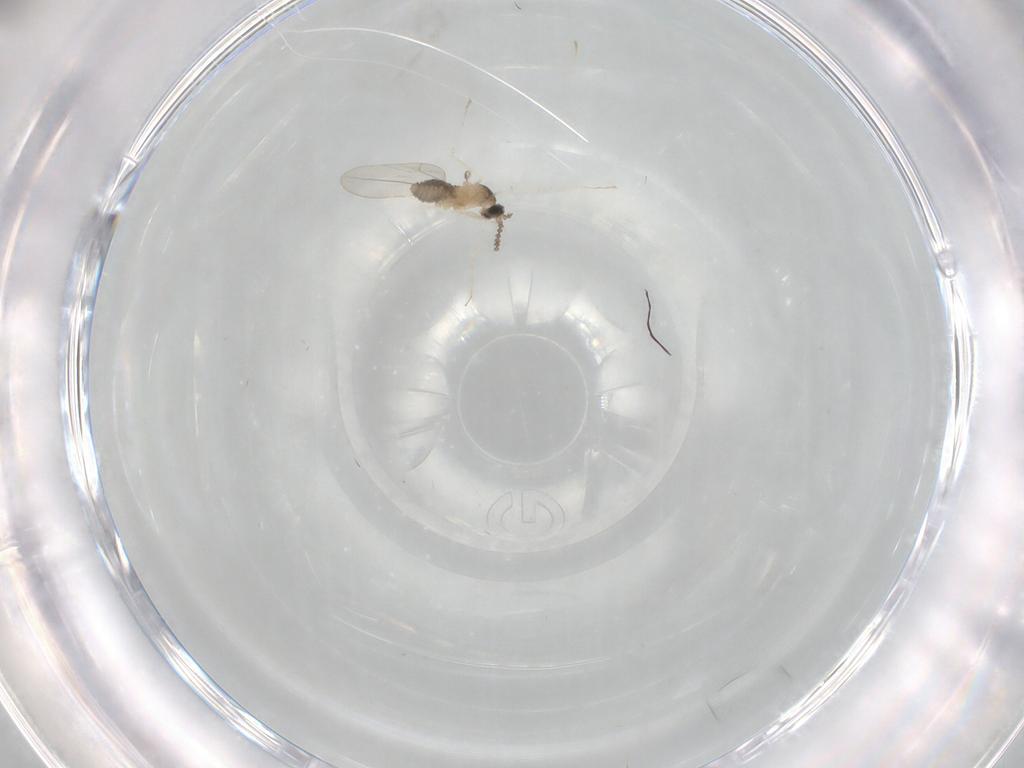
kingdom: Animalia
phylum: Arthropoda
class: Insecta
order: Diptera
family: Cecidomyiidae
